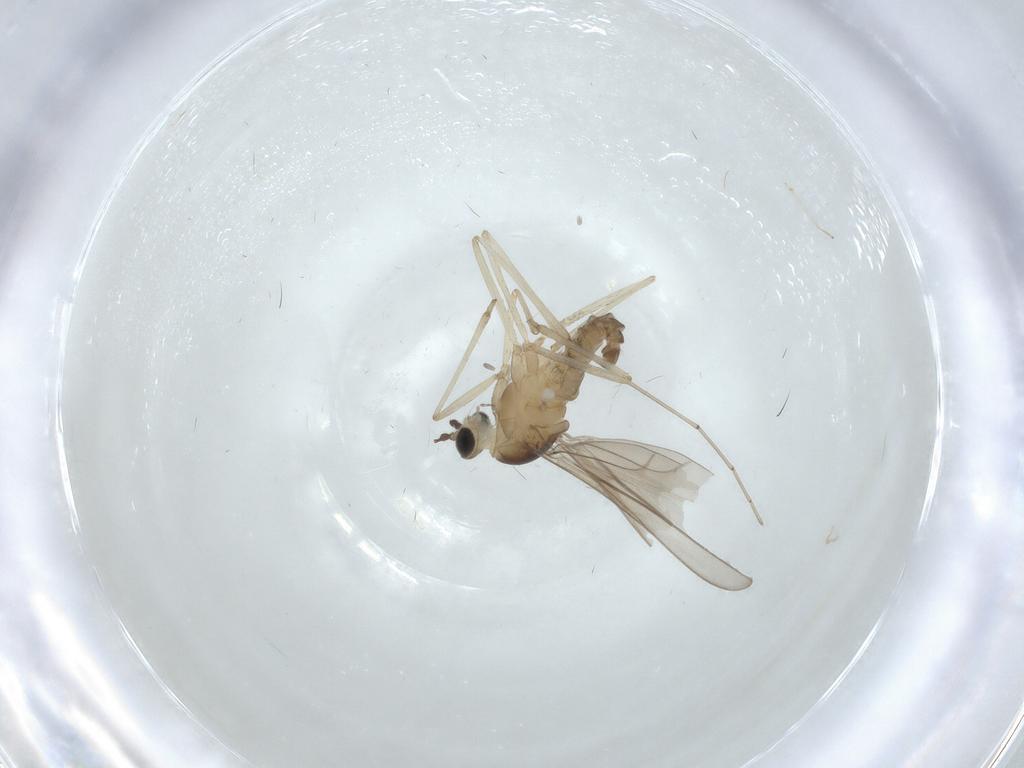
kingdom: Animalia
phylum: Arthropoda
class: Insecta
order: Diptera
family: Cecidomyiidae
